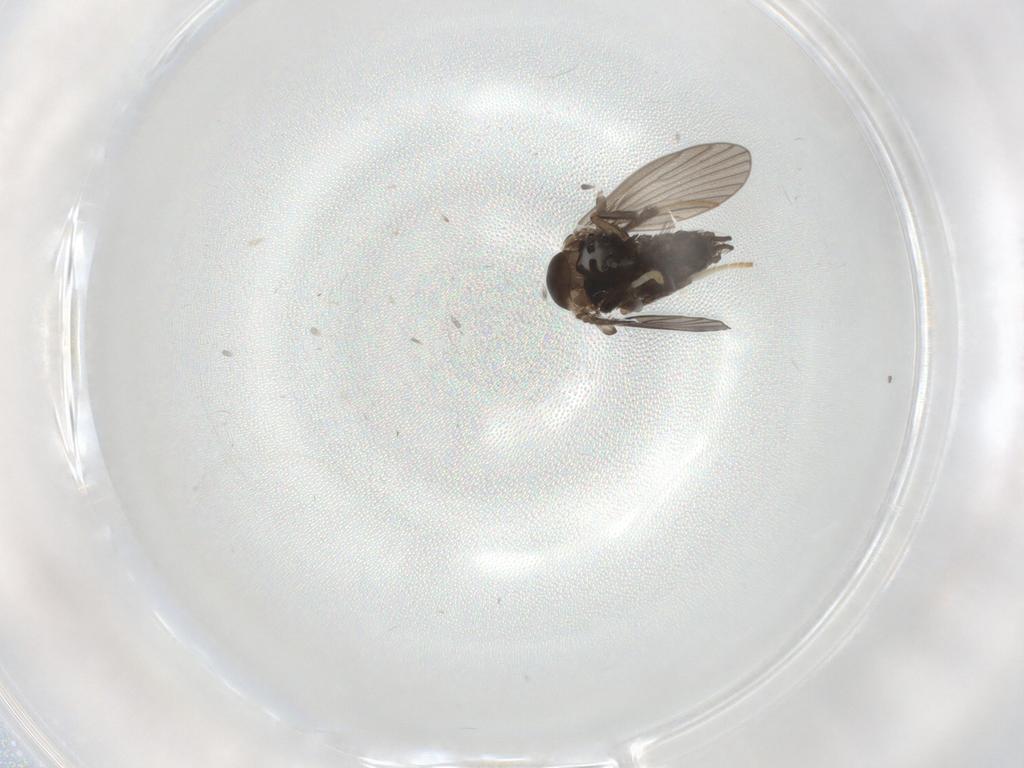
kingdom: Animalia
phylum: Arthropoda
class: Insecta
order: Diptera
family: Psychodidae
